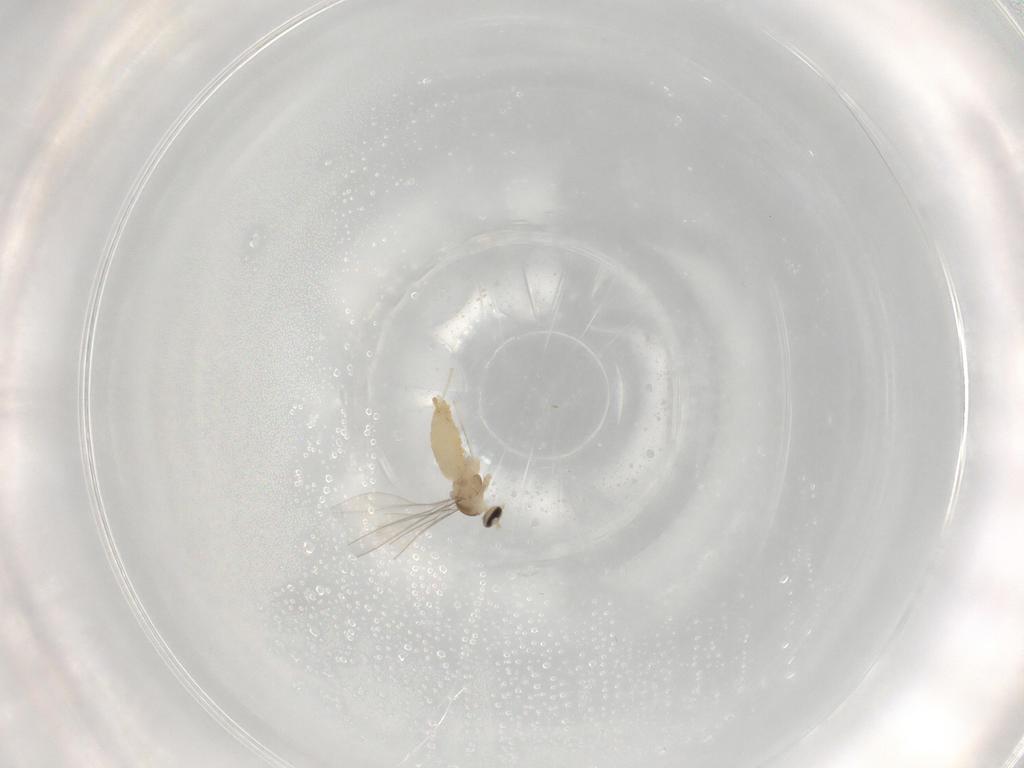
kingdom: Animalia
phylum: Arthropoda
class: Insecta
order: Diptera
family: Cecidomyiidae
